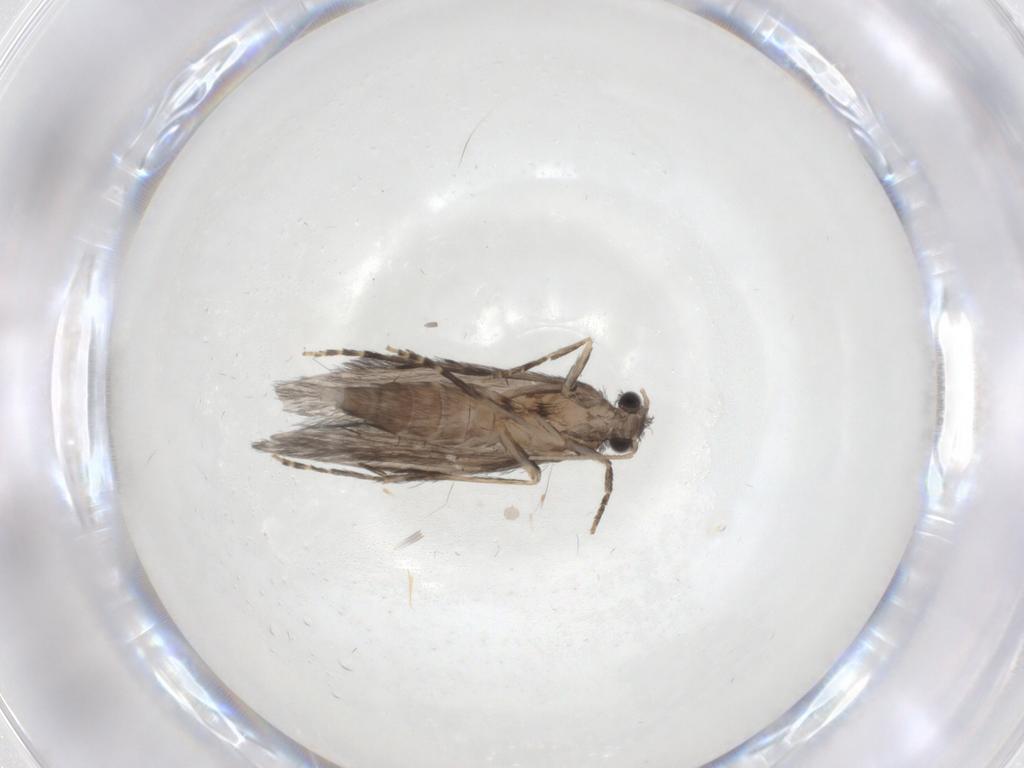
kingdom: Animalia
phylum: Arthropoda
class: Insecta
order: Trichoptera
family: Hydroptilidae
